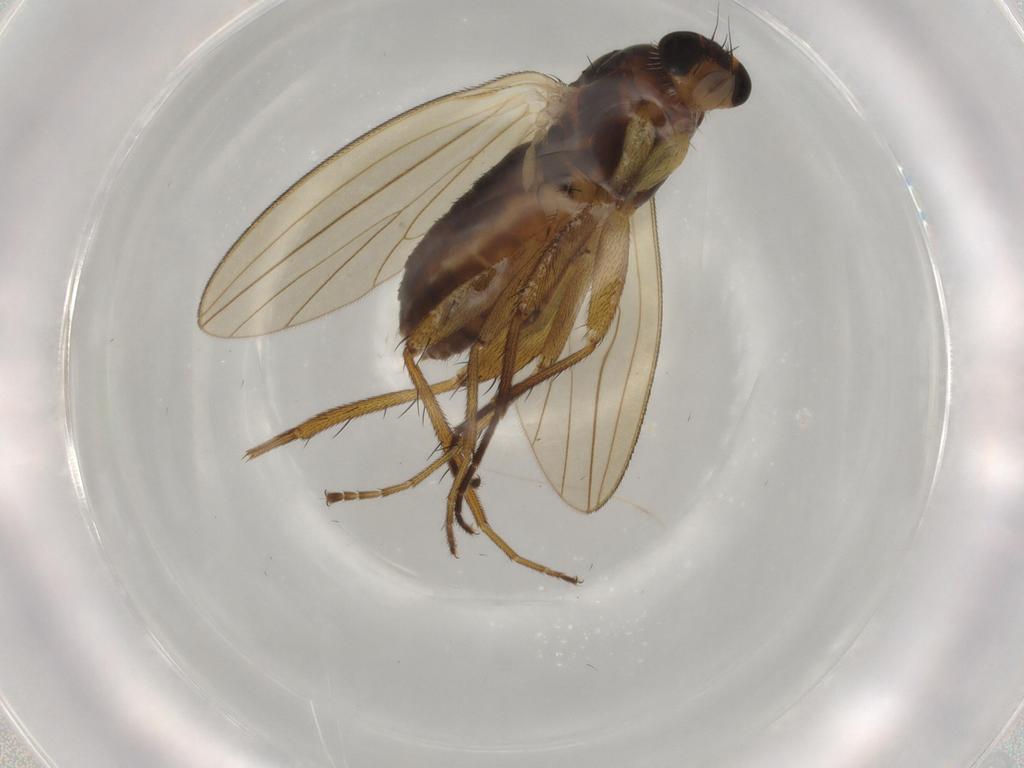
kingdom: Animalia
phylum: Arthropoda
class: Insecta
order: Diptera
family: Lonchopteridae
